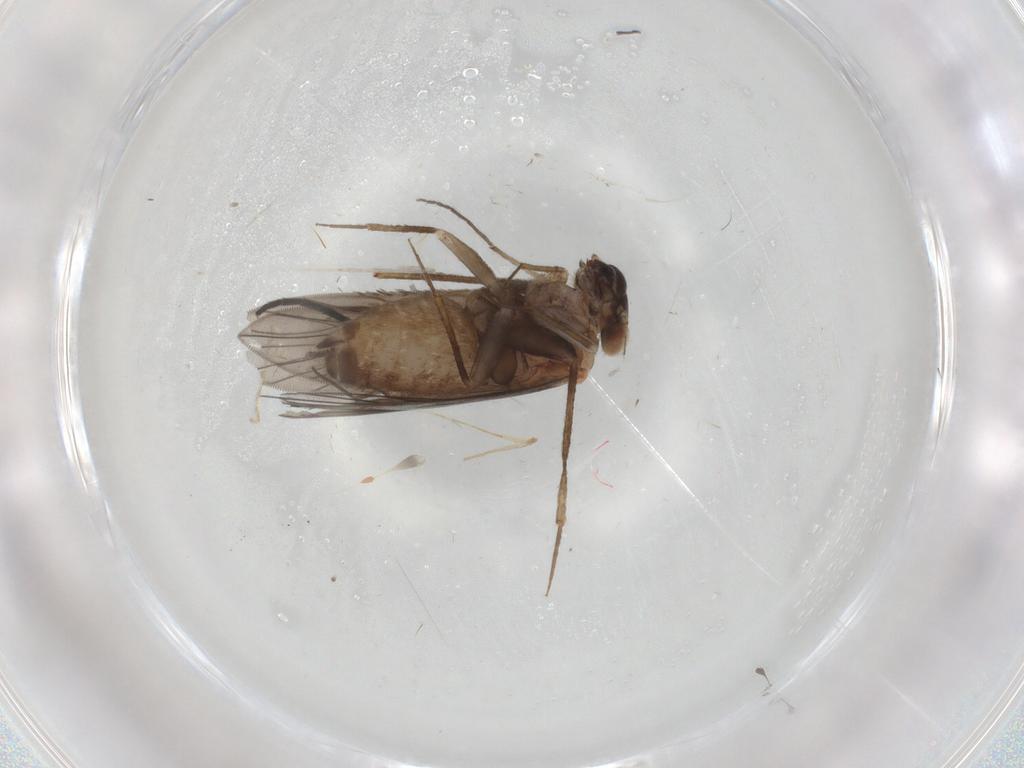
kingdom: Animalia
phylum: Arthropoda
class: Insecta
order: Psocodea
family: Lepidopsocidae
